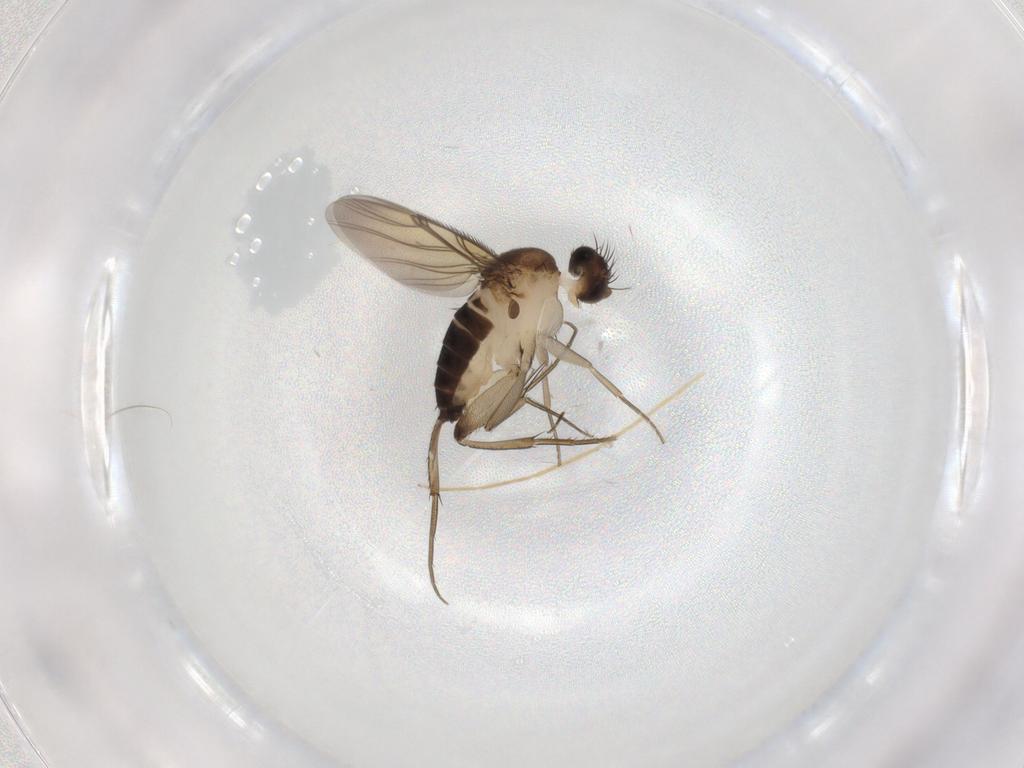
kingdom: Animalia
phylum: Arthropoda
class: Insecta
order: Diptera
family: Phoridae
